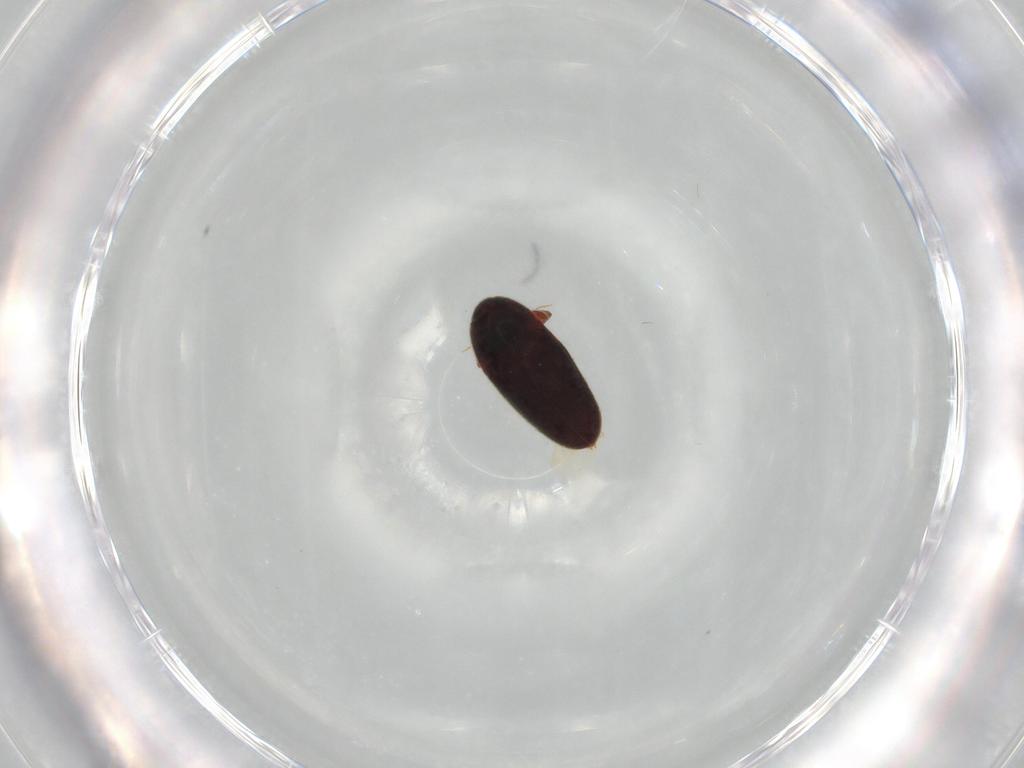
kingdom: Animalia
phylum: Arthropoda
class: Insecta
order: Coleoptera
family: Throscidae
